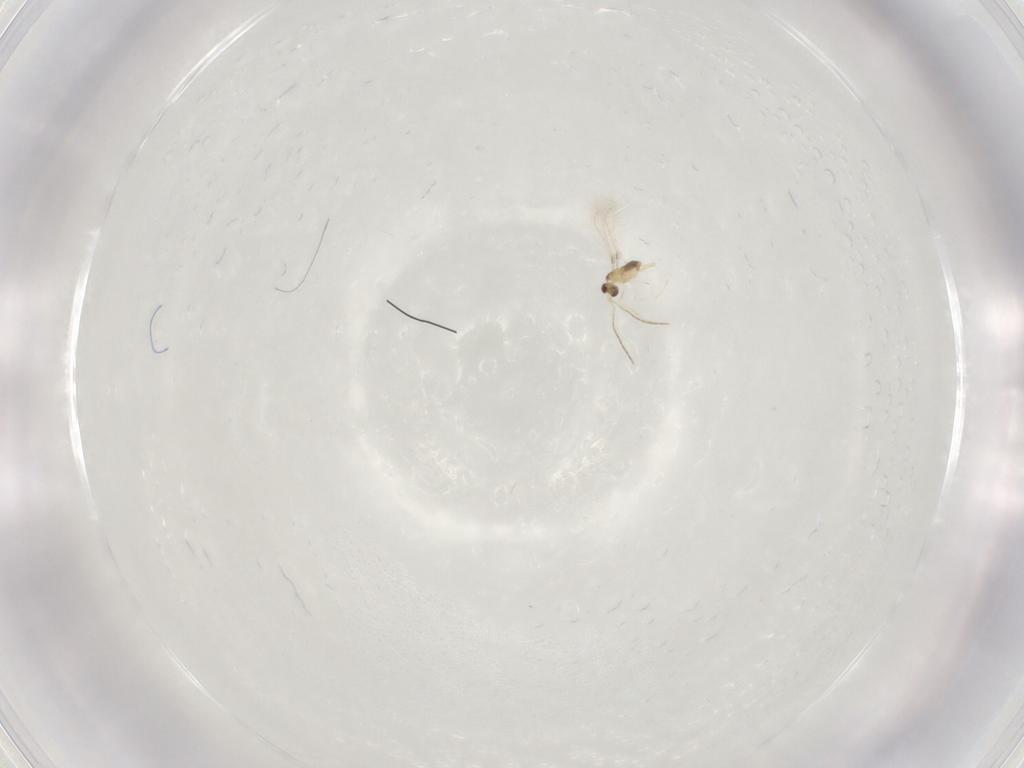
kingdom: Animalia
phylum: Arthropoda
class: Insecta
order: Hymenoptera
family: Mymaridae
